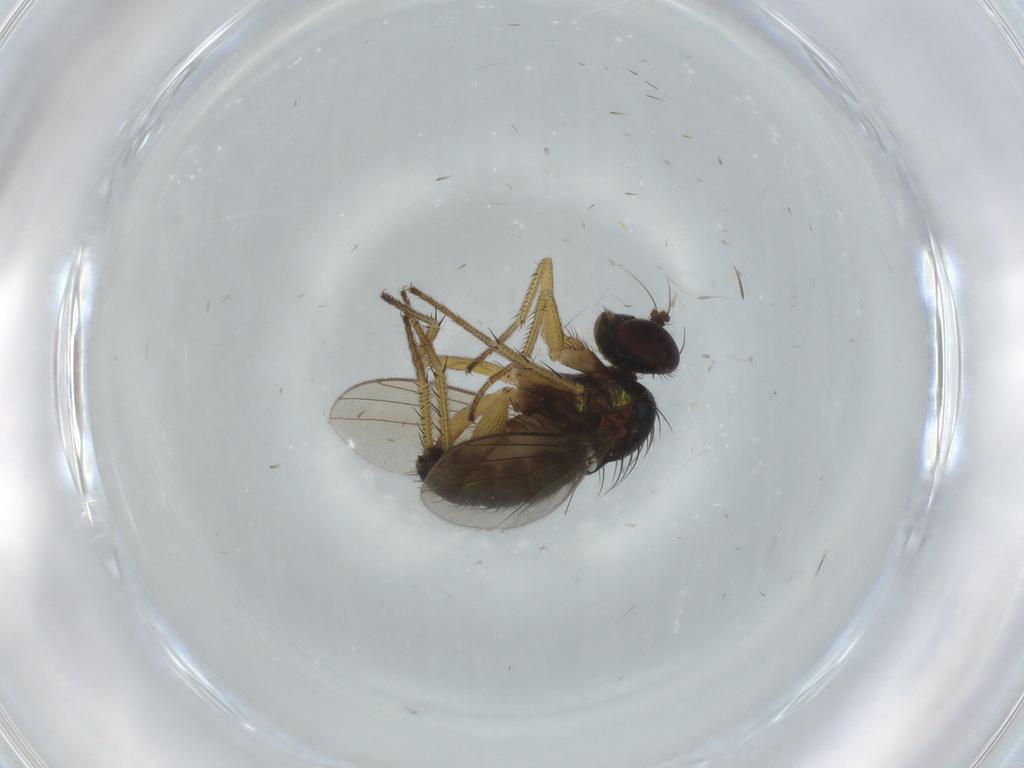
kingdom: Animalia
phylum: Arthropoda
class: Insecta
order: Diptera
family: Dolichopodidae
